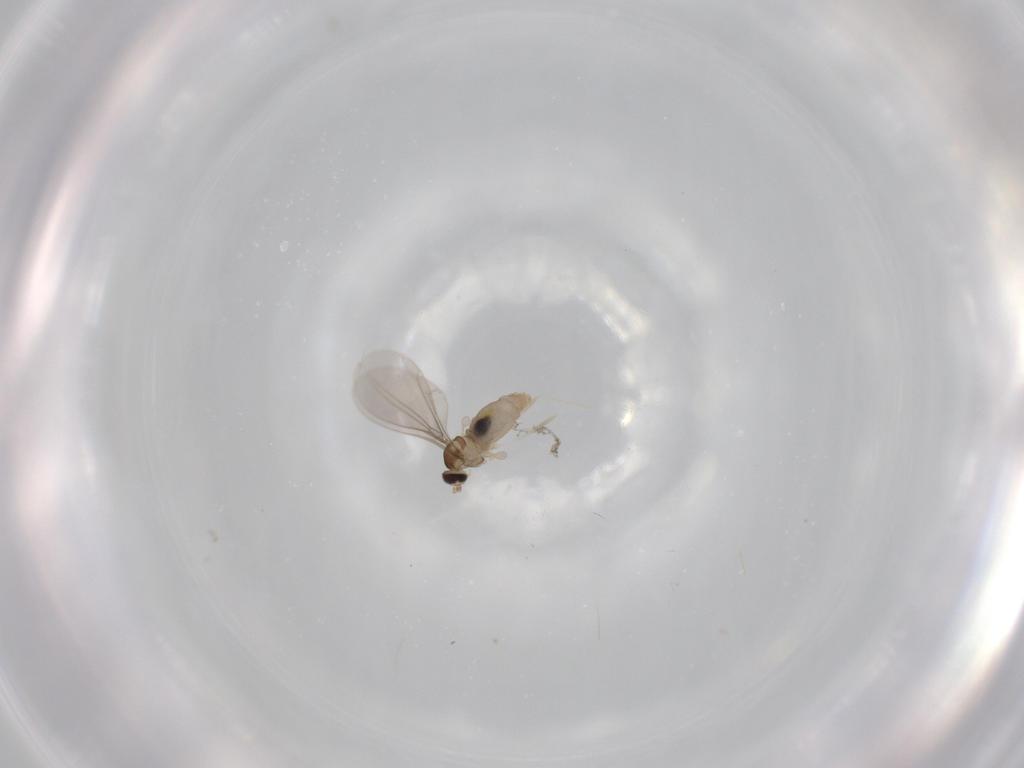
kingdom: Animalia
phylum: Arthropoda
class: Insecta
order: Diptera
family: Cecidomyiidae
